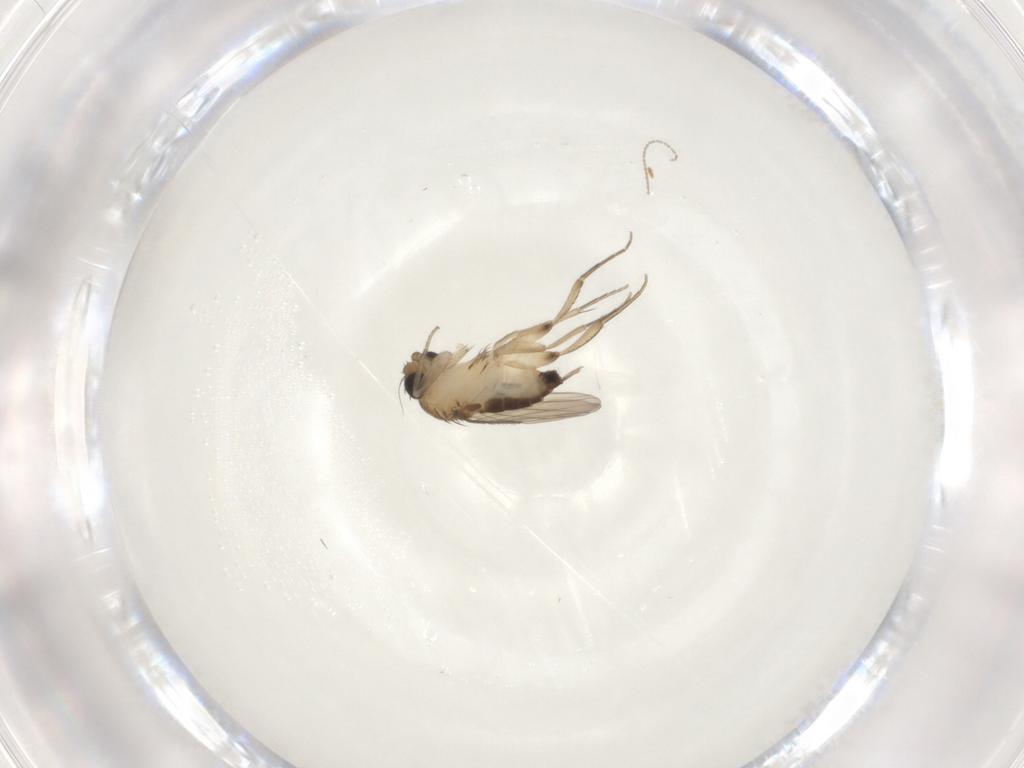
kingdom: Animalia
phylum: Arthropoda
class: Insecta
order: Diptera
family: Phoridae
